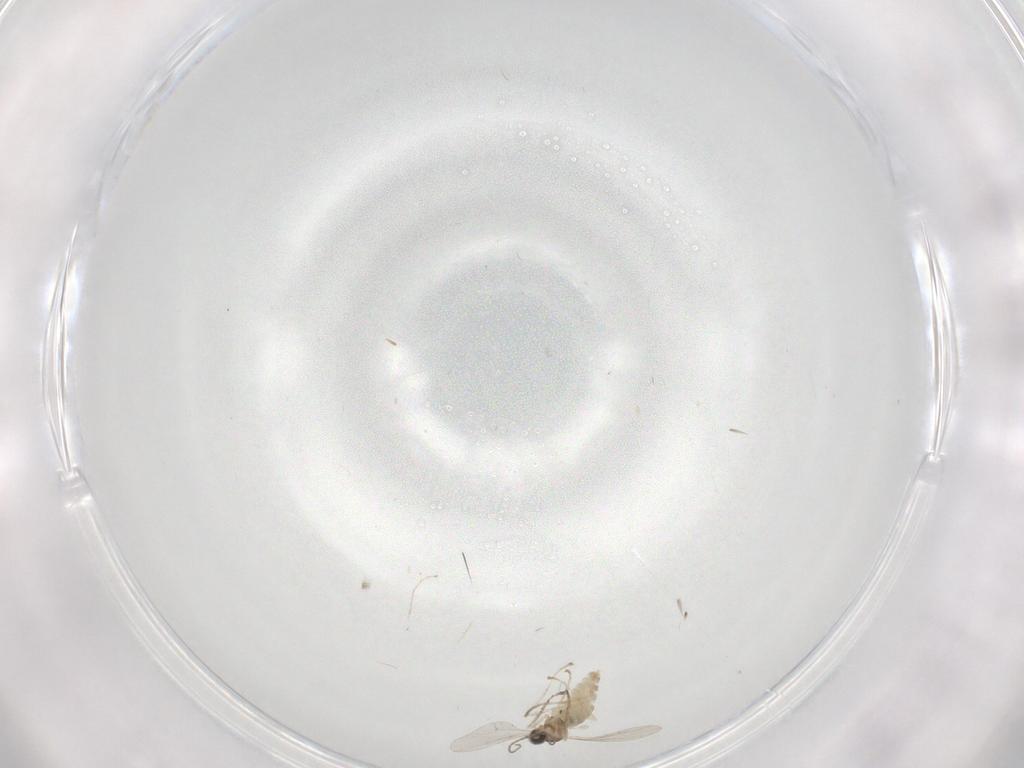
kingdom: Animalia
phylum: Arthropoda
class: Insecta
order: Diptera
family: Cecidomyiidae
